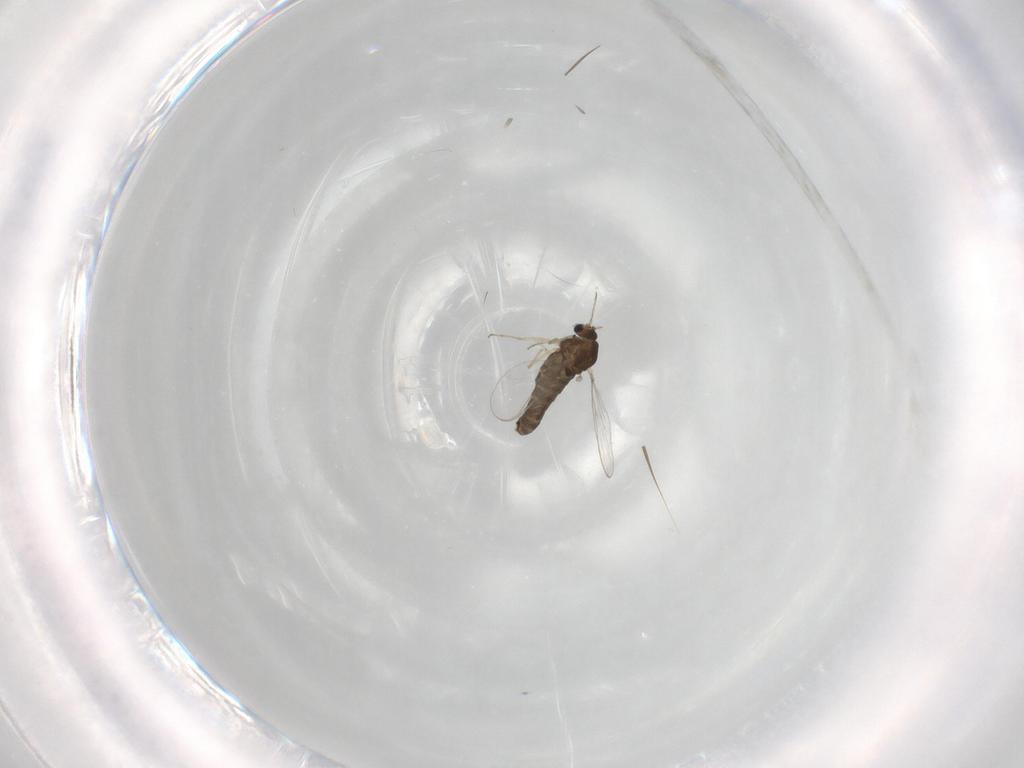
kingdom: Animalia
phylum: Arthropoda
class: Insecta
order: Diptera
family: Chironomidae
